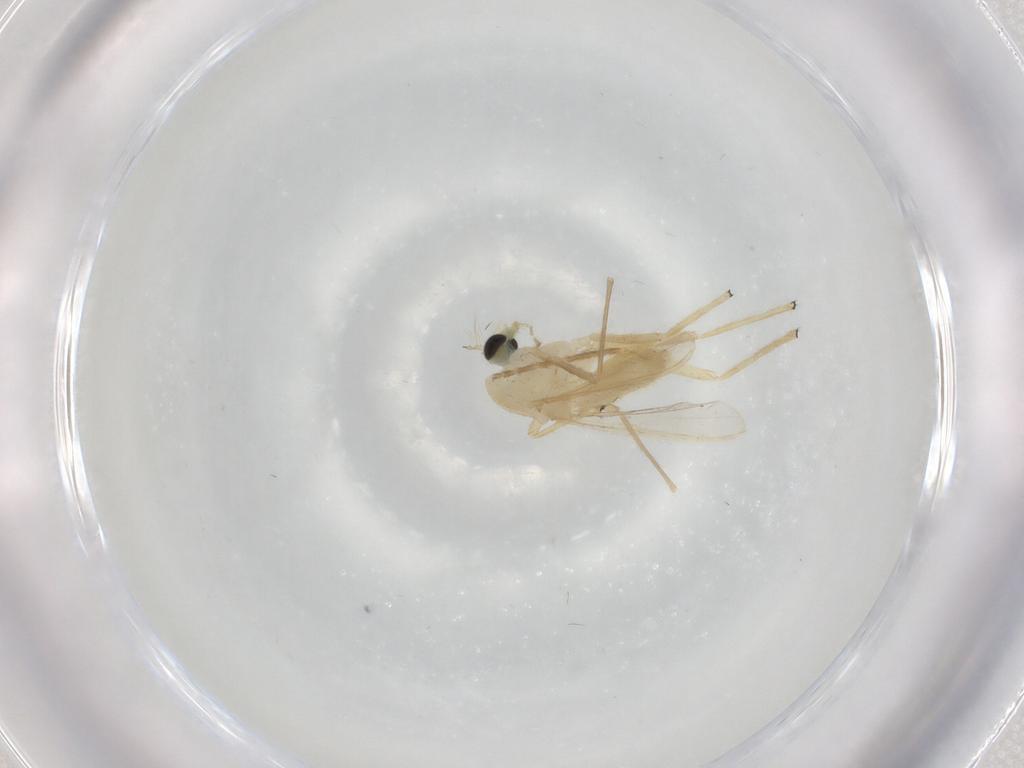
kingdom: Animalia
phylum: Arthropoda
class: Insecta
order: Diptera
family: Chironomidae
